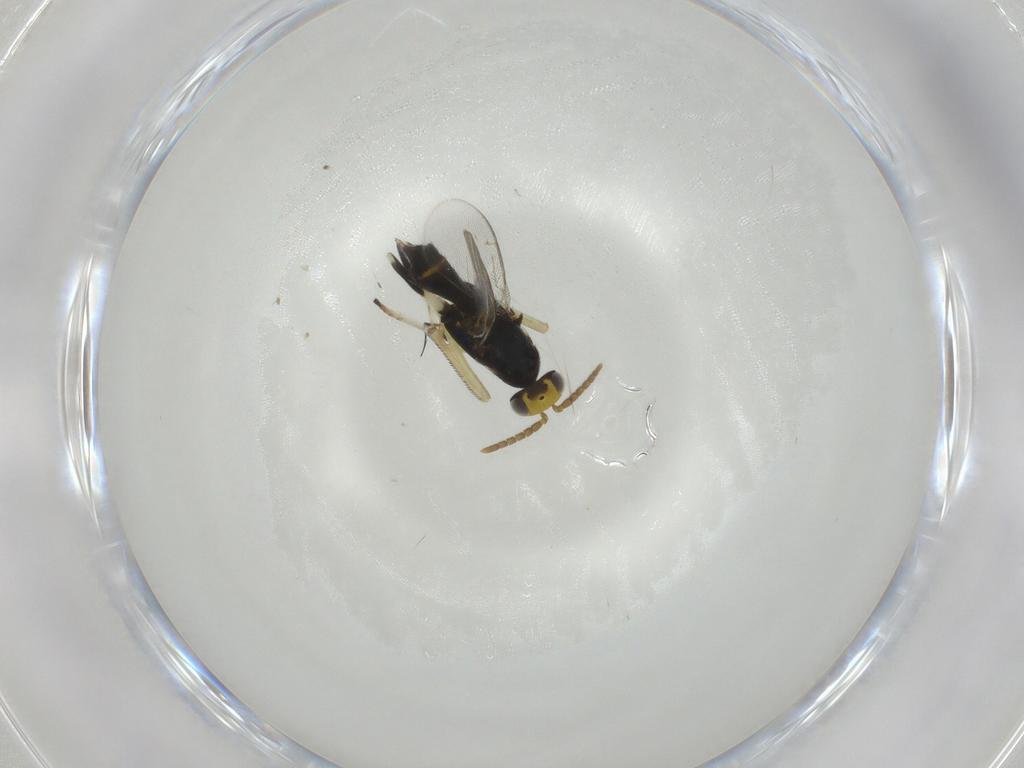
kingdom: Animalia
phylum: Arthropoda
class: Insecta
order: Hymenoptera
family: Eupelmidae
